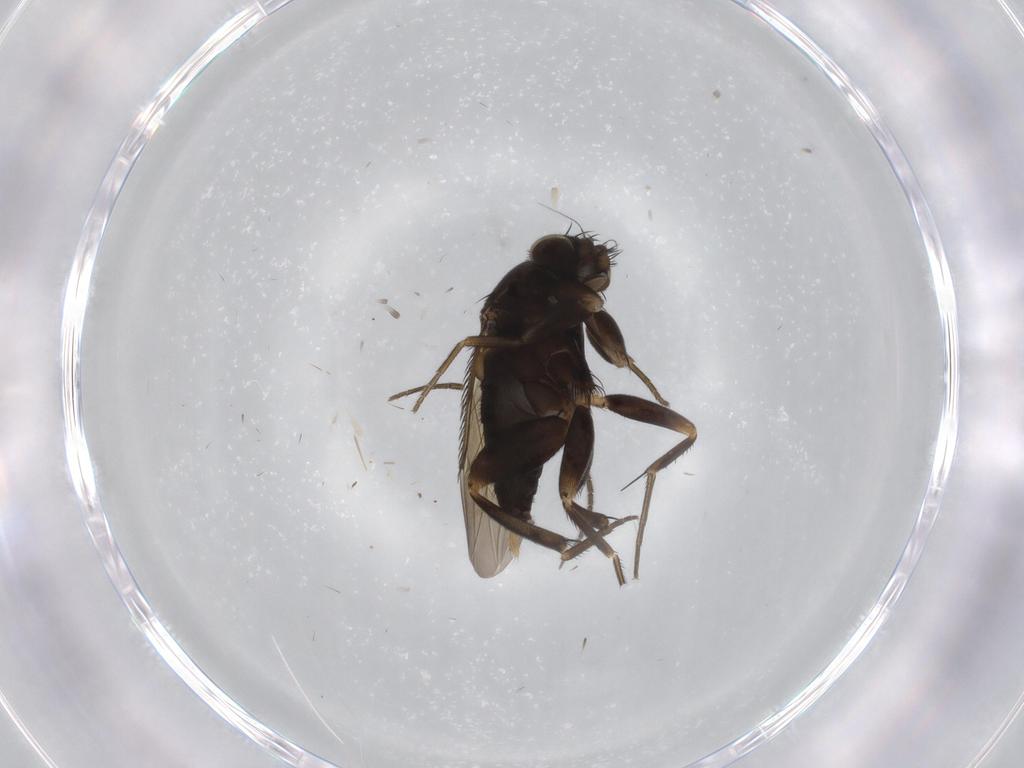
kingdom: Animalia
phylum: Arthropoda
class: Insecta
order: Diptera
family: Phoridae
